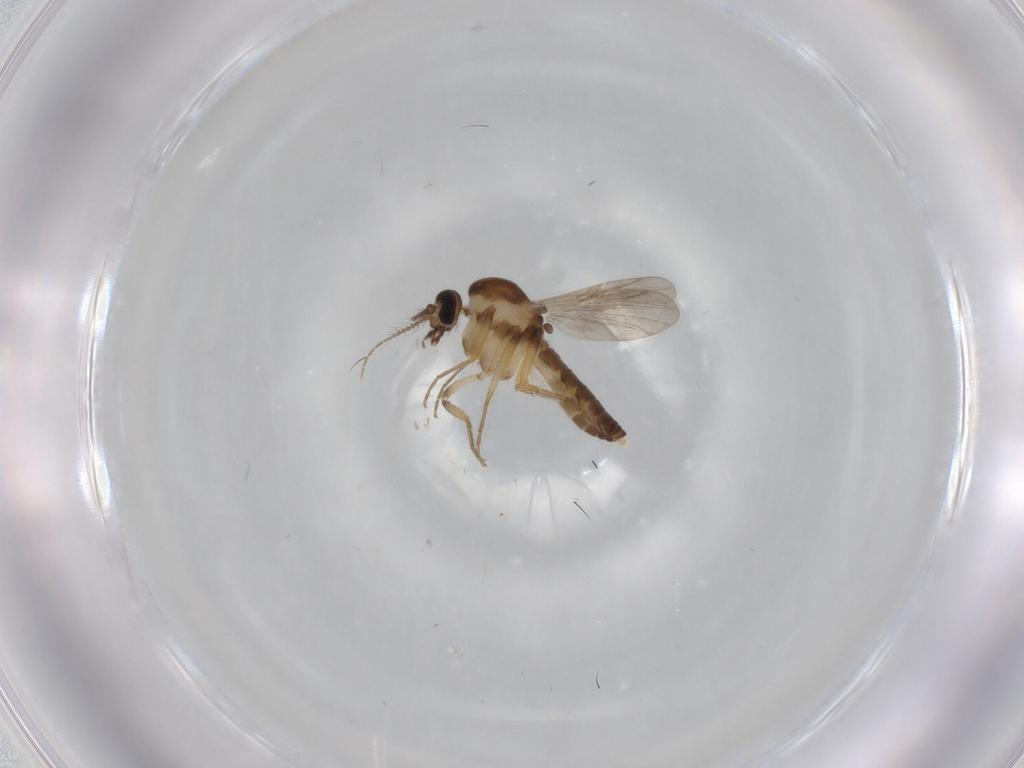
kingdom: Animalia
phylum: Arthropoda
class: Insecta
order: Diptera
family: Ceratopogonidae
